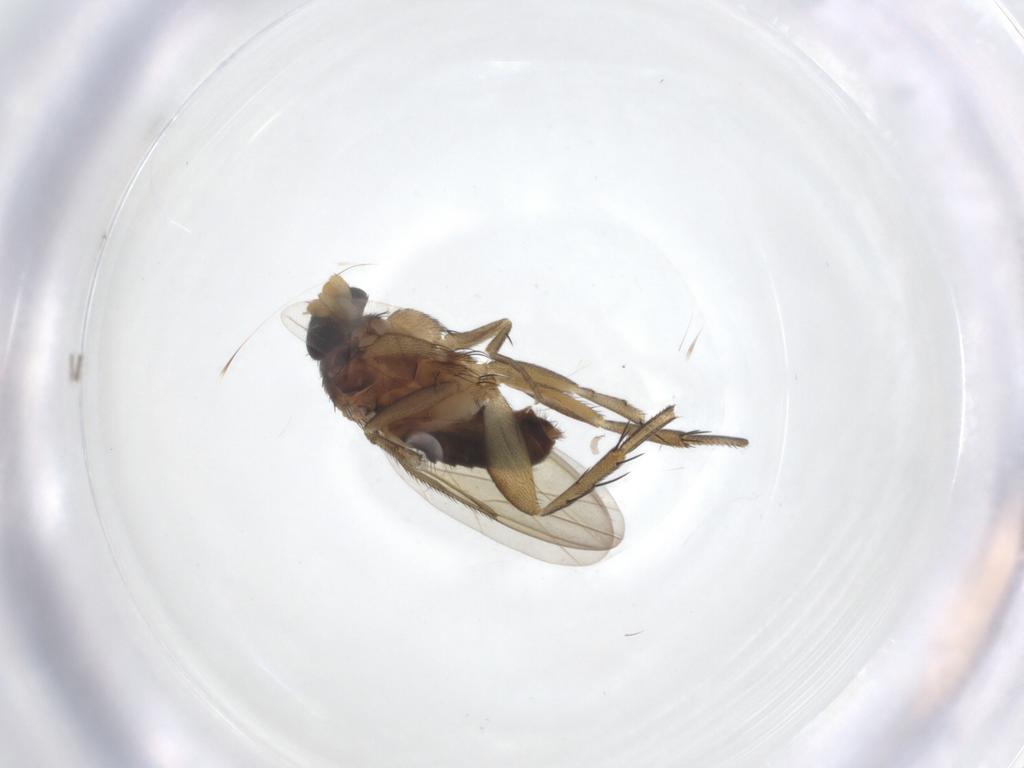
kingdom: Animalia
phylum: Arthropoda
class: Insecta
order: Diptera
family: Phoridae
